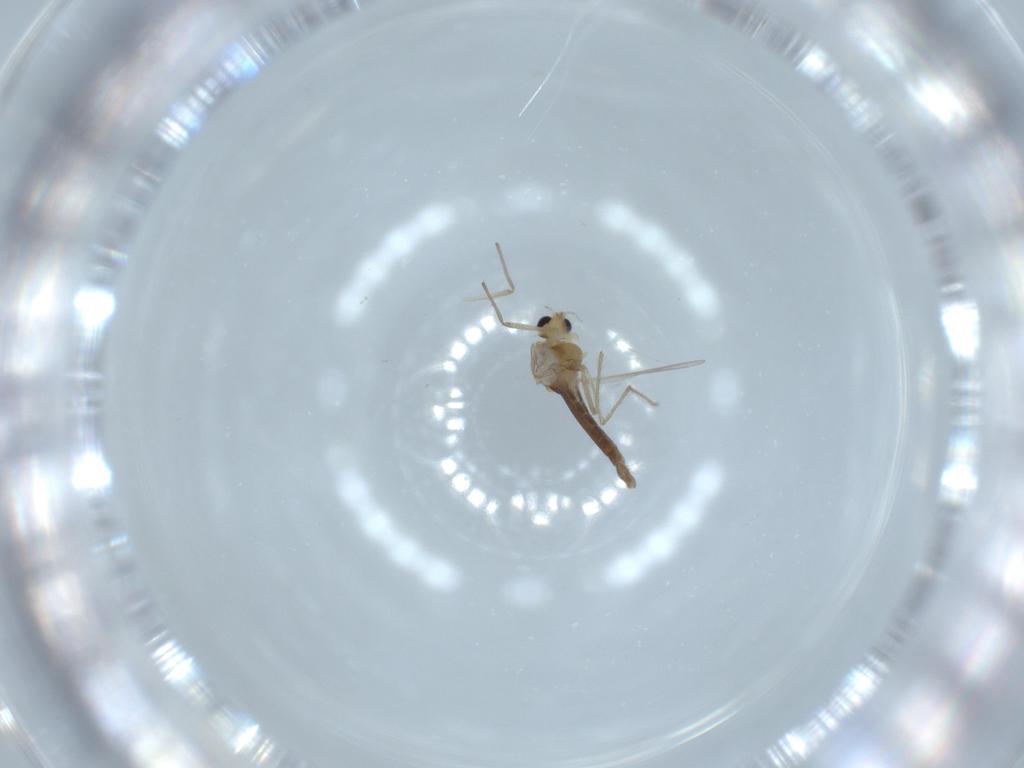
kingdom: Animalia
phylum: Arthropoda
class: Insecta
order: Diptera
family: Chironomidae
